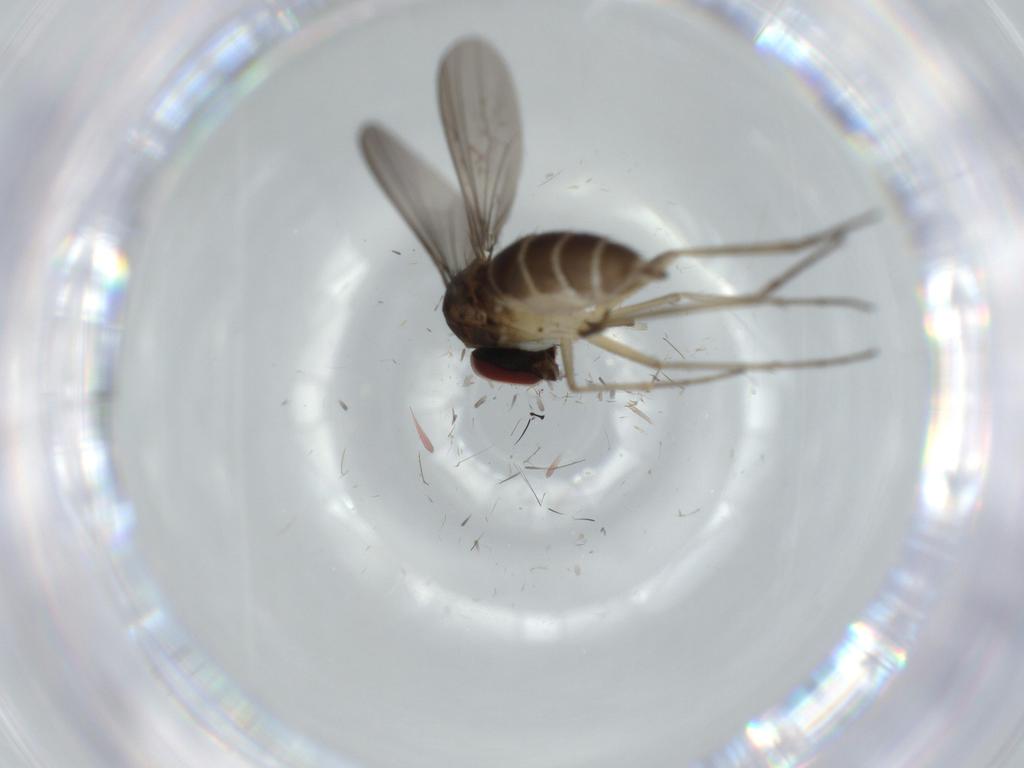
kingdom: Animalia
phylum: Arthropoda
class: Insecta
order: Diptera
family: Dolichopodidae
